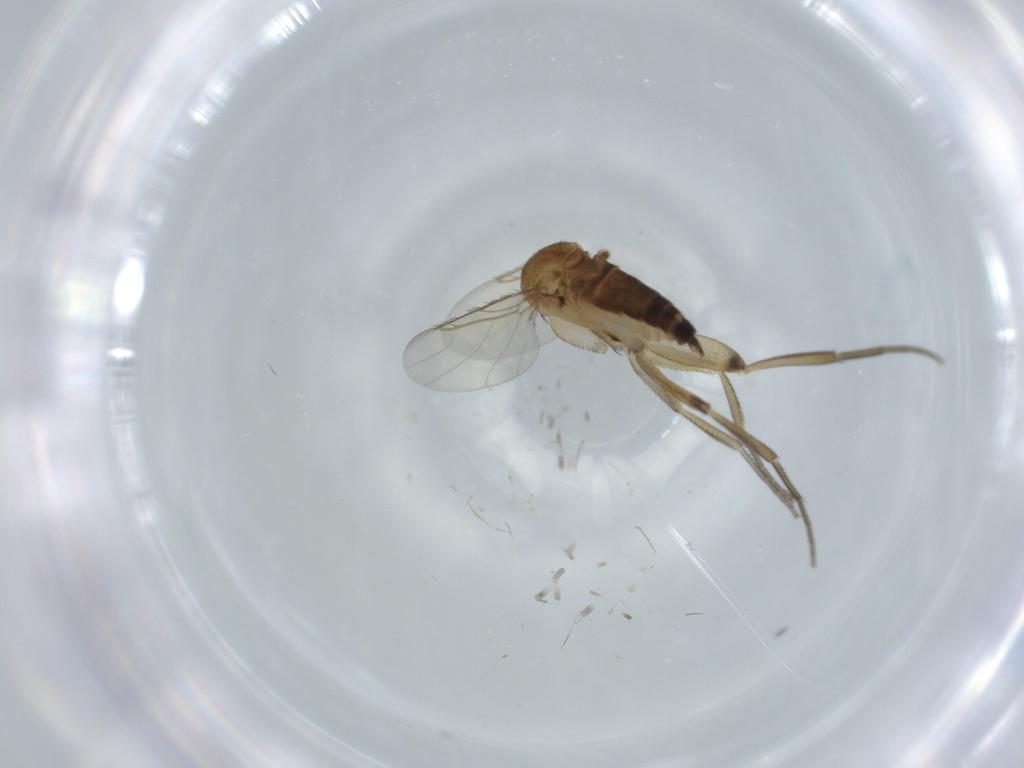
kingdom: Animalia
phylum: Arthropoda
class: Insecta
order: Diptera
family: Phoridae
